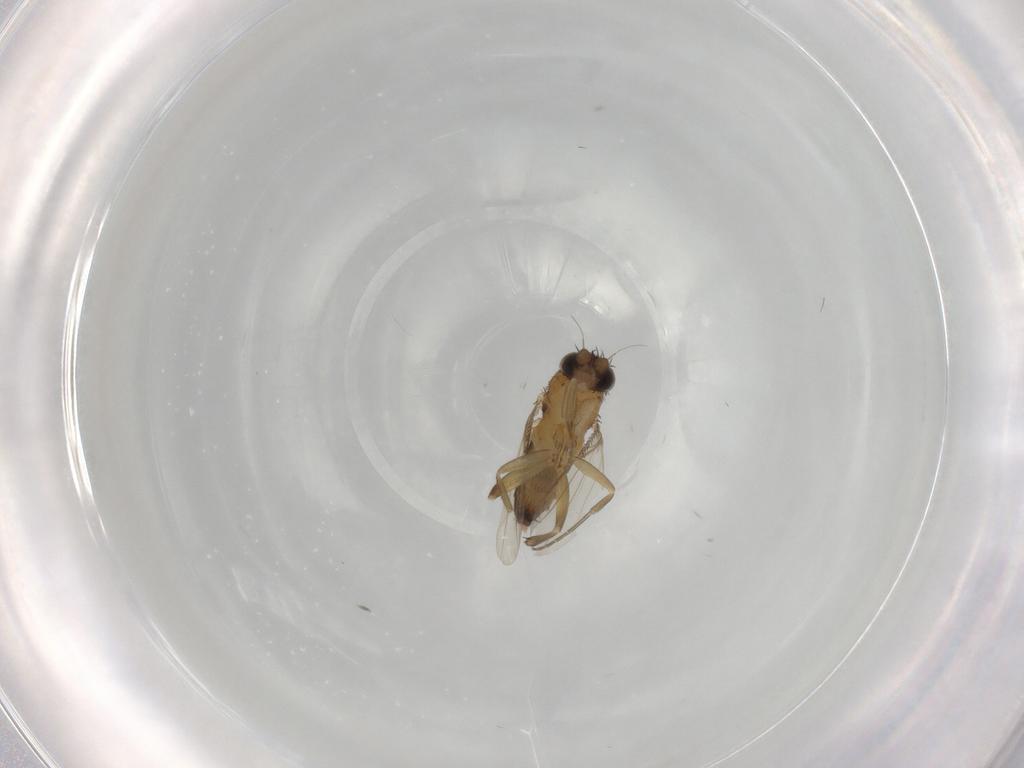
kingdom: Animalia
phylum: Arthropoda
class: Insecta
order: Diptera
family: Phoridae
